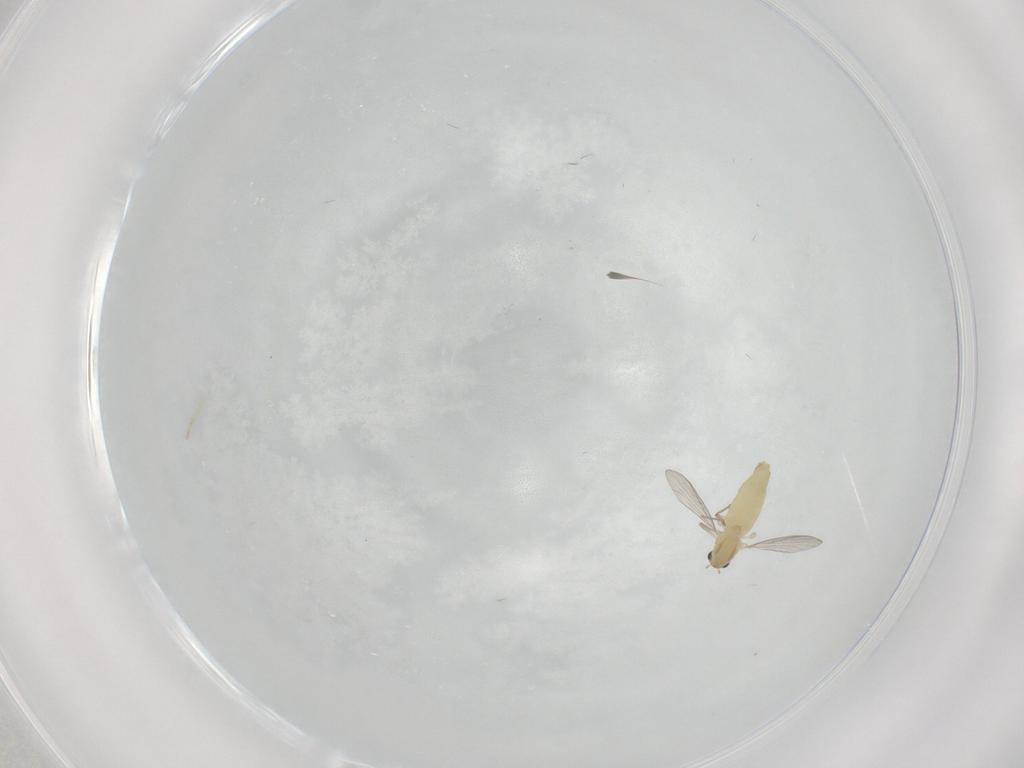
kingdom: Animalia
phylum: Arthropoda
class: Insecta
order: Diptera
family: Chironomidae
